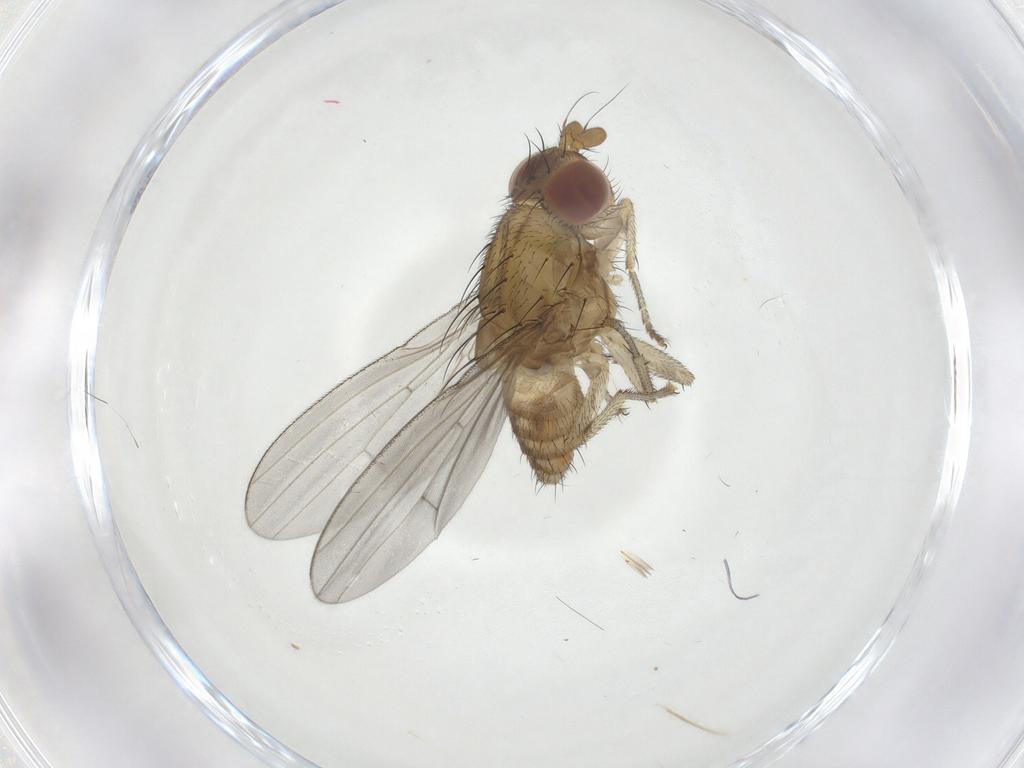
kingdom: Animalia
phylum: Arthropoda
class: Insecta
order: Diptera
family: Lauxaniidae
